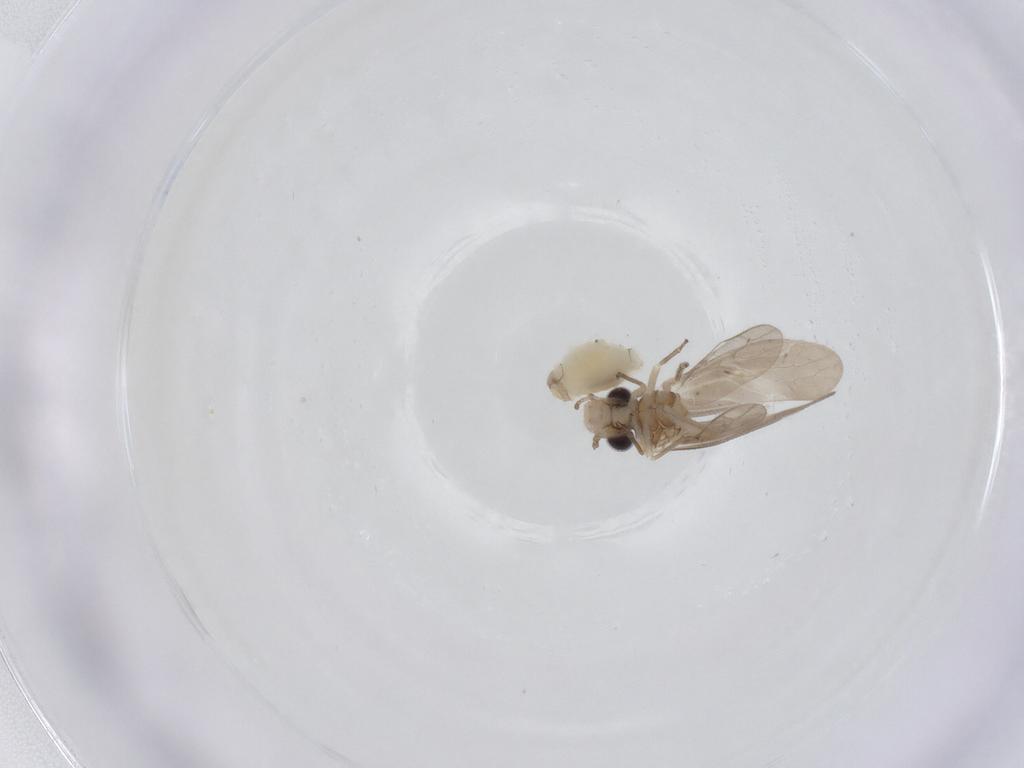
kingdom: Animalia
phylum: Arthropoda
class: Insecta
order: Psocodea
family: Caeciliusidae
